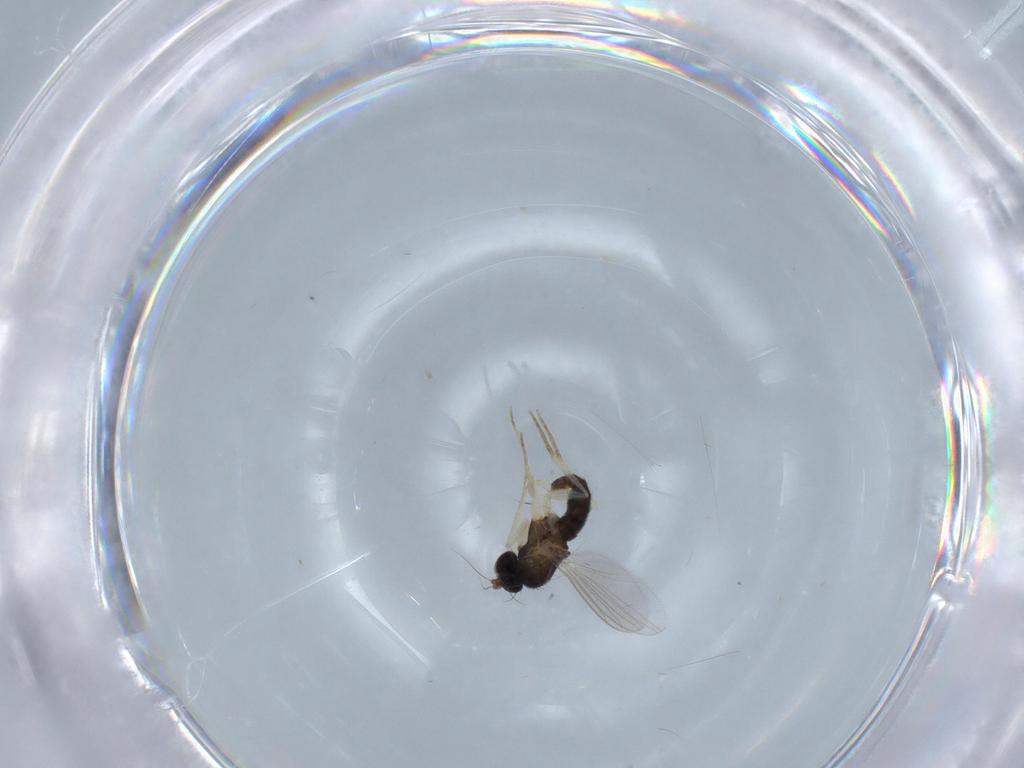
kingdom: Animalia
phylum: Arthropoda
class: Insecta
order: Diptera
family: Dolichopodidae
